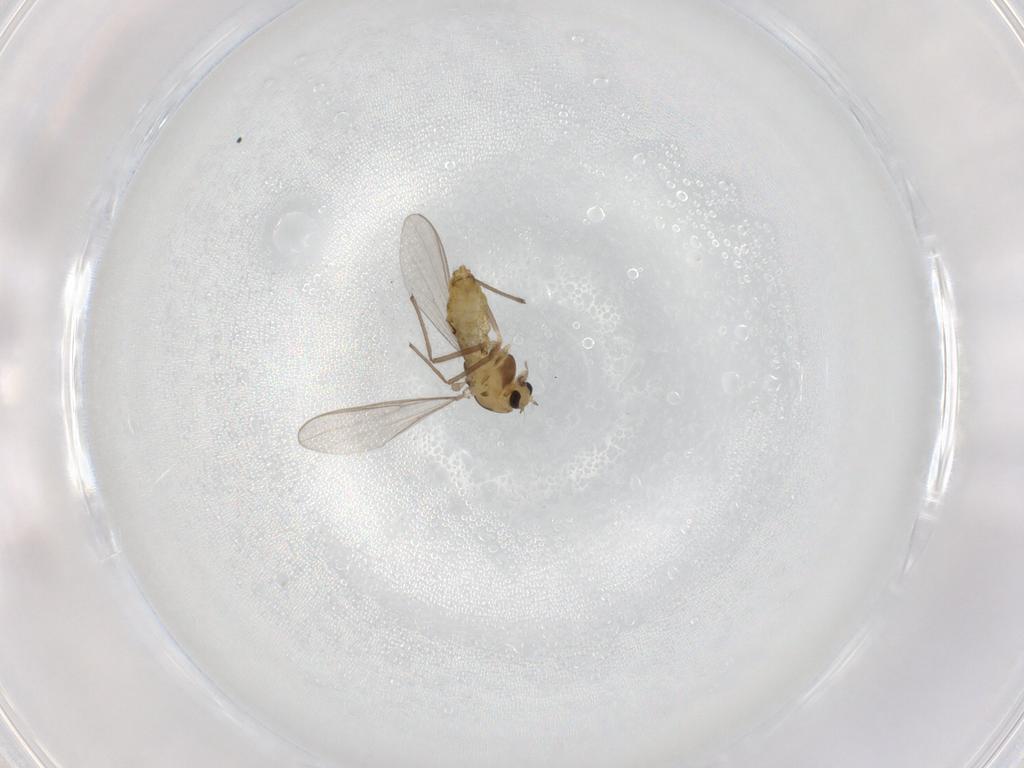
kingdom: Animalia
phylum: Arthropoda
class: Insecta
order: Diptera
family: Chironomidae
